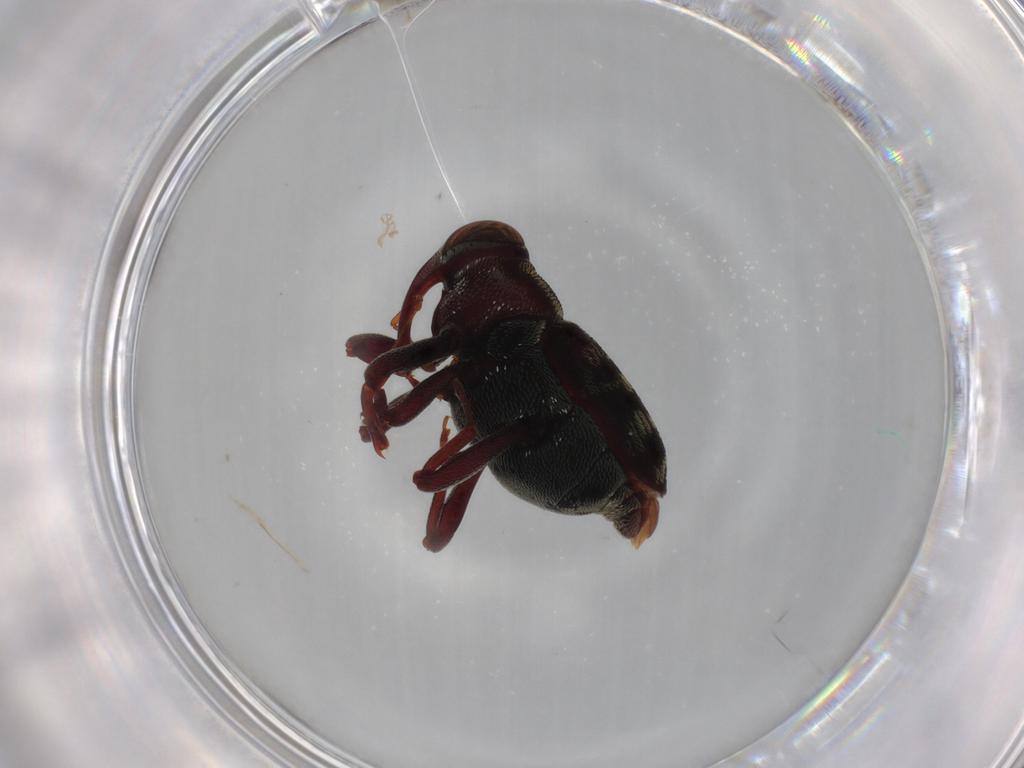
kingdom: Animalia
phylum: Arthropoda
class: Insecta
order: Coleoptera
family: Curculionidae
